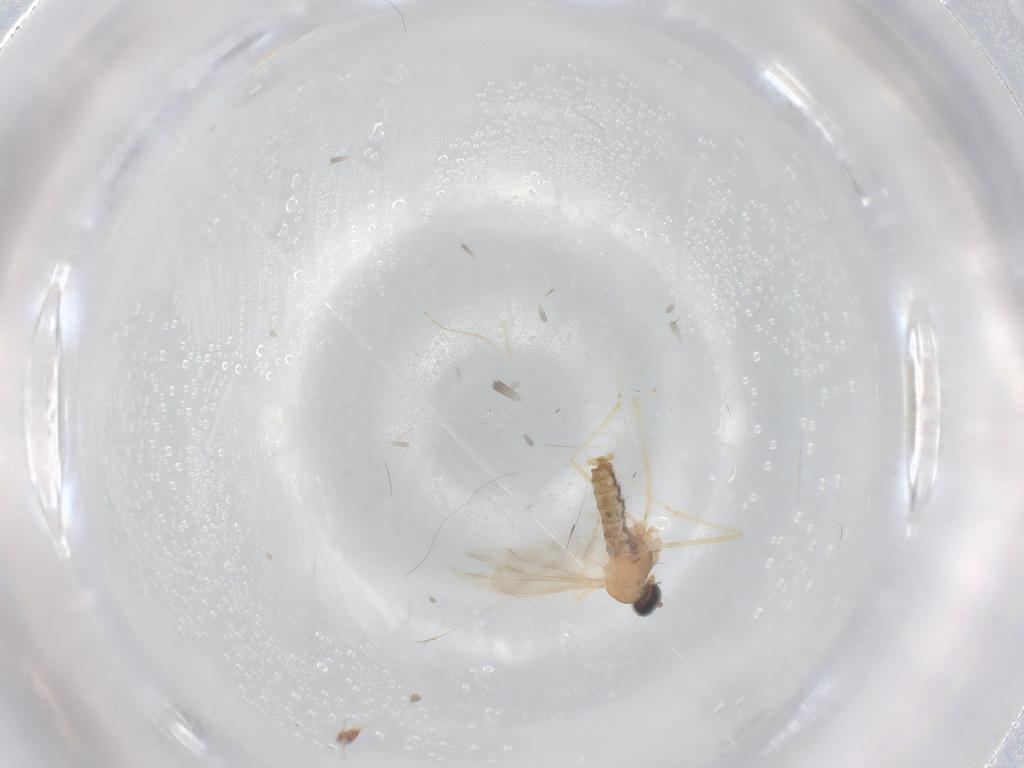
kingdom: Animalia
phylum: Arthropoda
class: Insecta
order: Diptera
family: Cecidomyiidae
